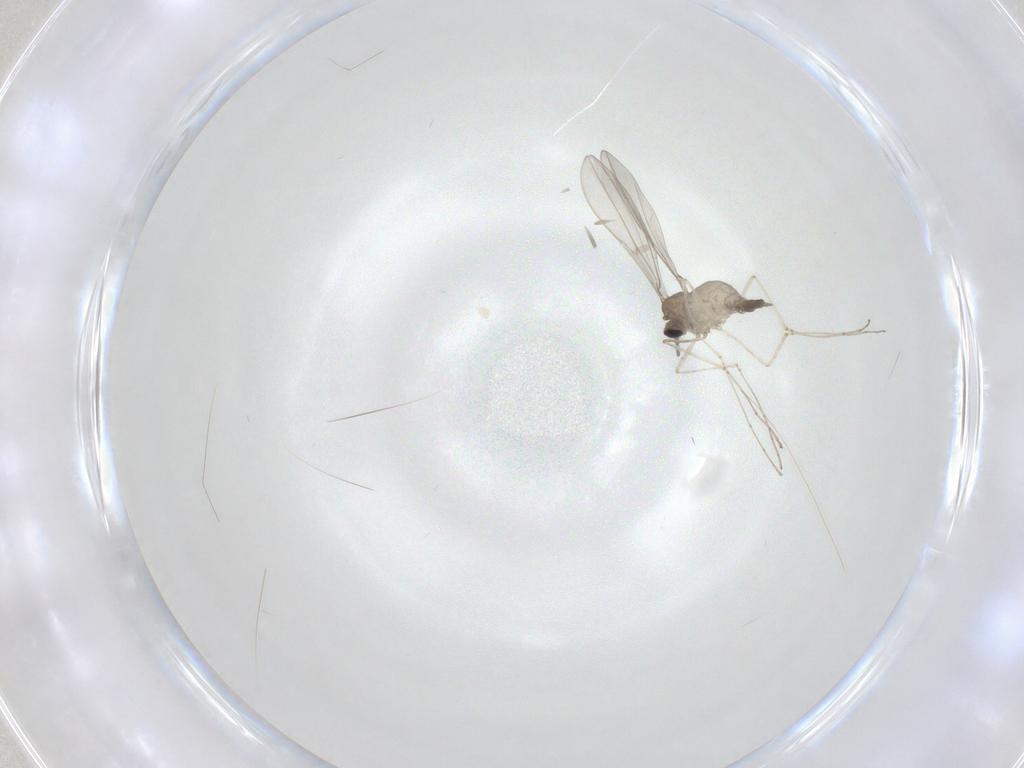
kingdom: Animalia
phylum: Arthropoda
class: Insecta
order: Diptera
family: Cecidomyiidae
